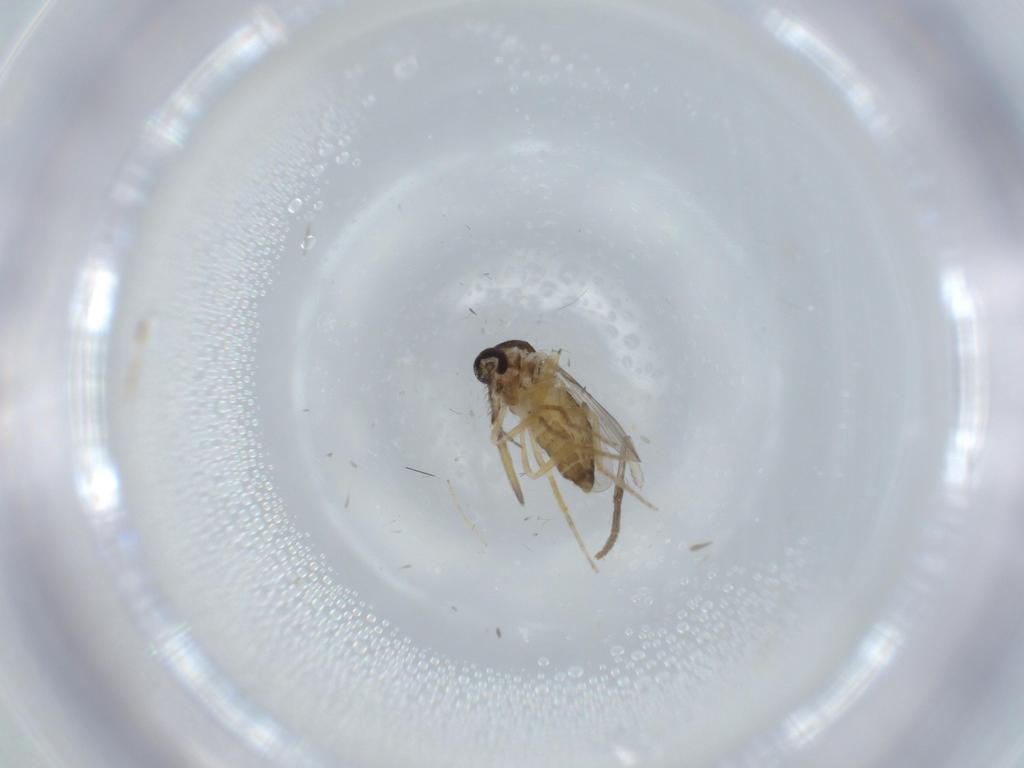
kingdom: Animalia
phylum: Arthropoda
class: Insecta
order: Diptera
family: Ceratopogonidae
